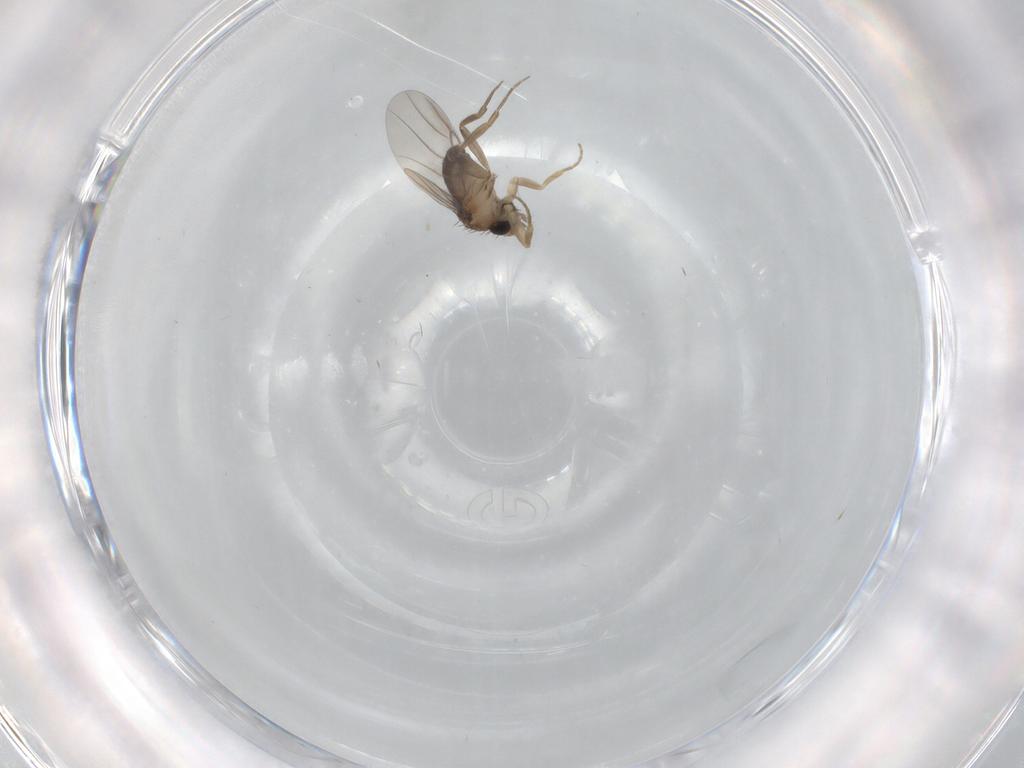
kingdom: Animalia
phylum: Arthropoda
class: Insecta
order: Diptera
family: Phoridae
